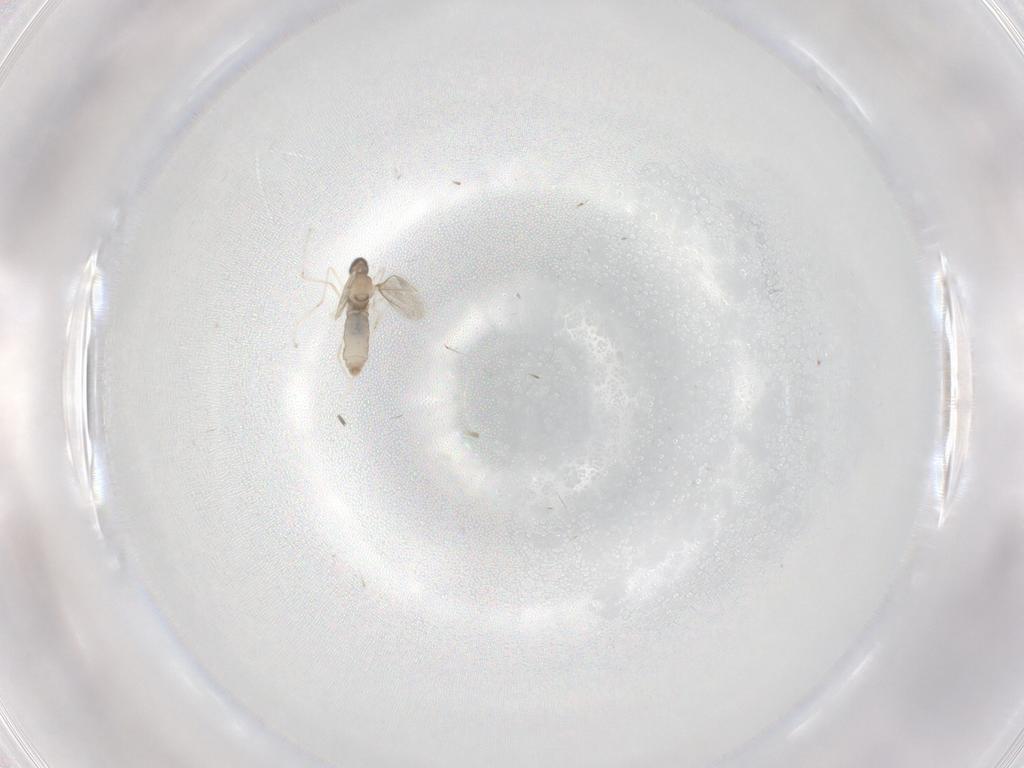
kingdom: Animalia
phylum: Arthropoda
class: Insecta
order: Diptera
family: Cecidomyiidae
